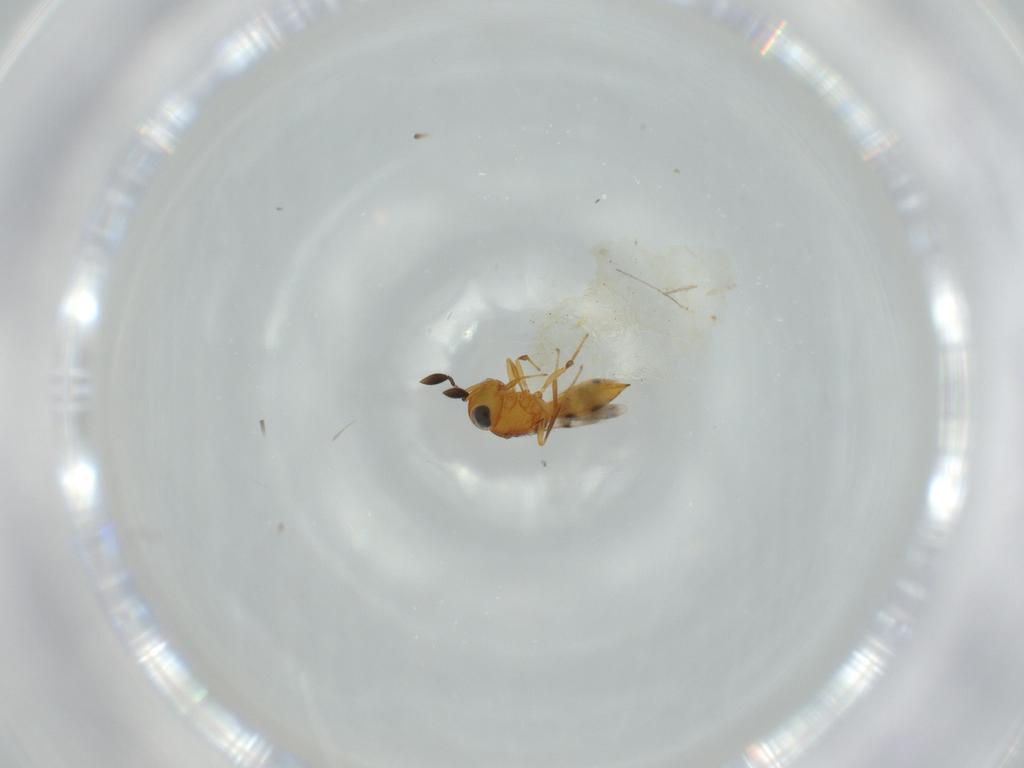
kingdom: Animalia
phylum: Arthropoda
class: Insecta
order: Hymenoptera
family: Scelionidae
